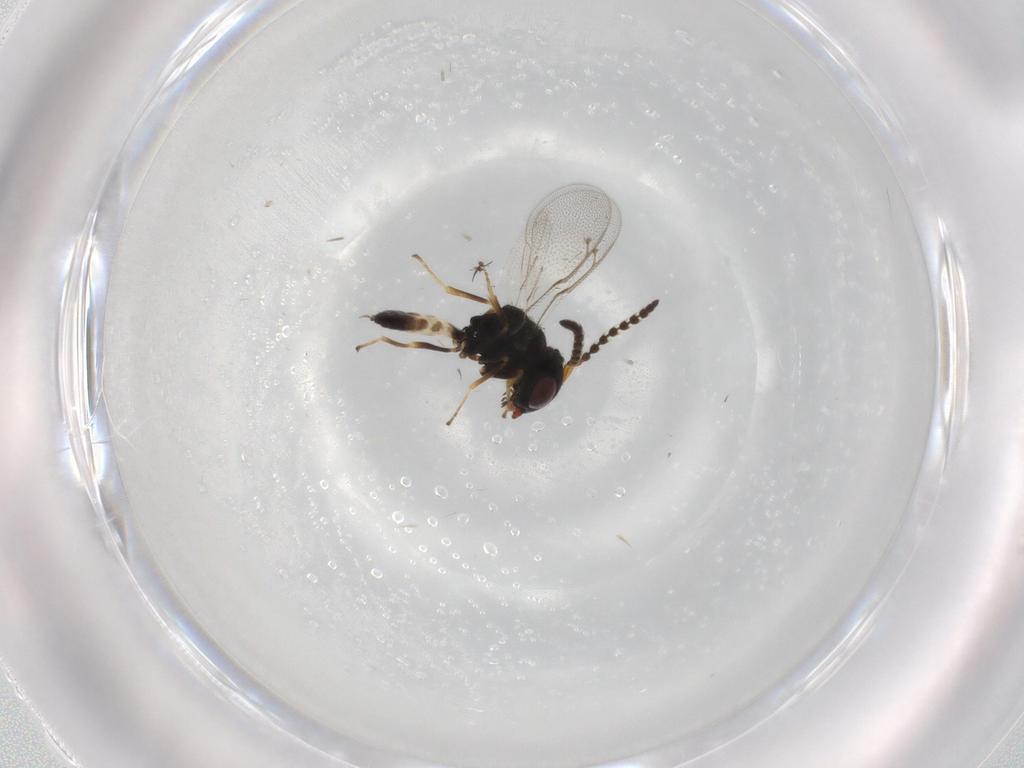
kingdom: Animalia
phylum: Arthropoda
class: Insecta
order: Hymenoptera
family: Pteromalidae
